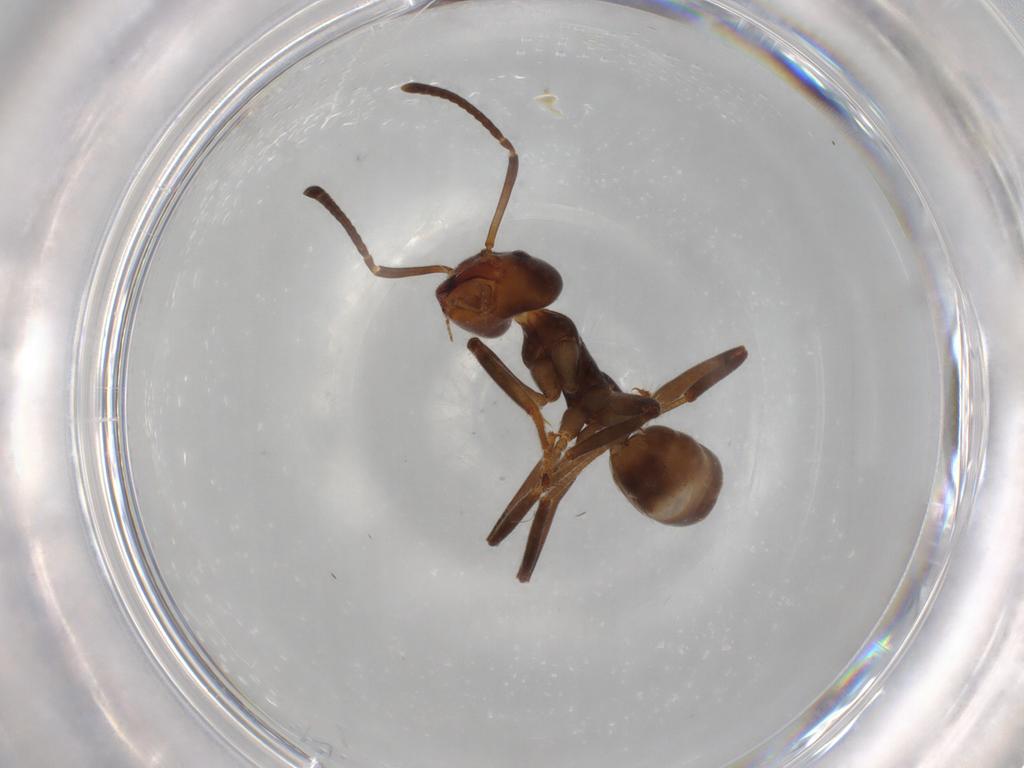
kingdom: Animalia
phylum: Arthropoda
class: Insecta
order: Hymenoptera
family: Formicidae
